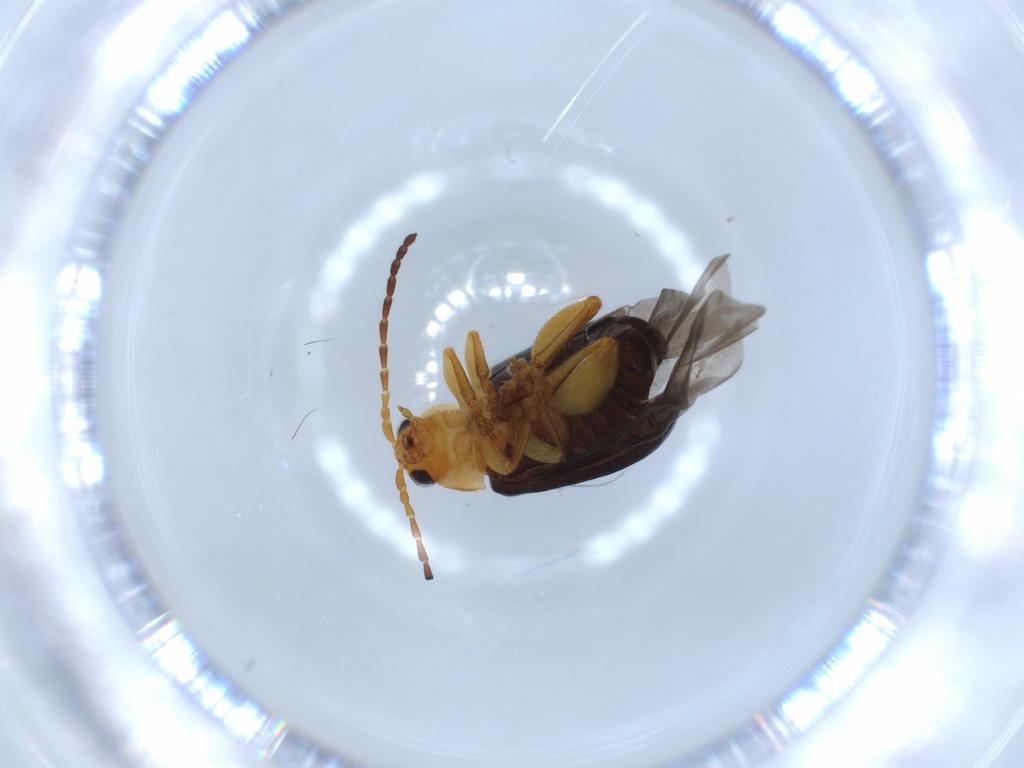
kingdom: Animalia
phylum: Arthropoda
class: Insecta
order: Coleoptera
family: Chrysomelidae
